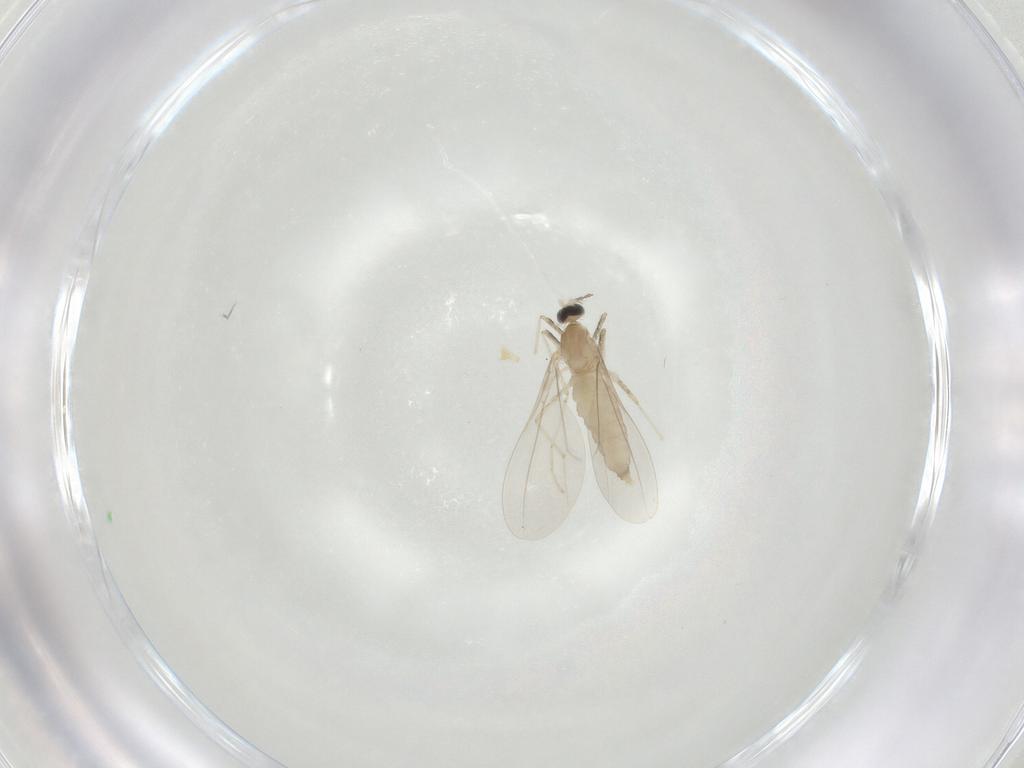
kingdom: Animalia
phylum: Arthropoda
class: Insecta
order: Diptera
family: Cecidomyiidae
